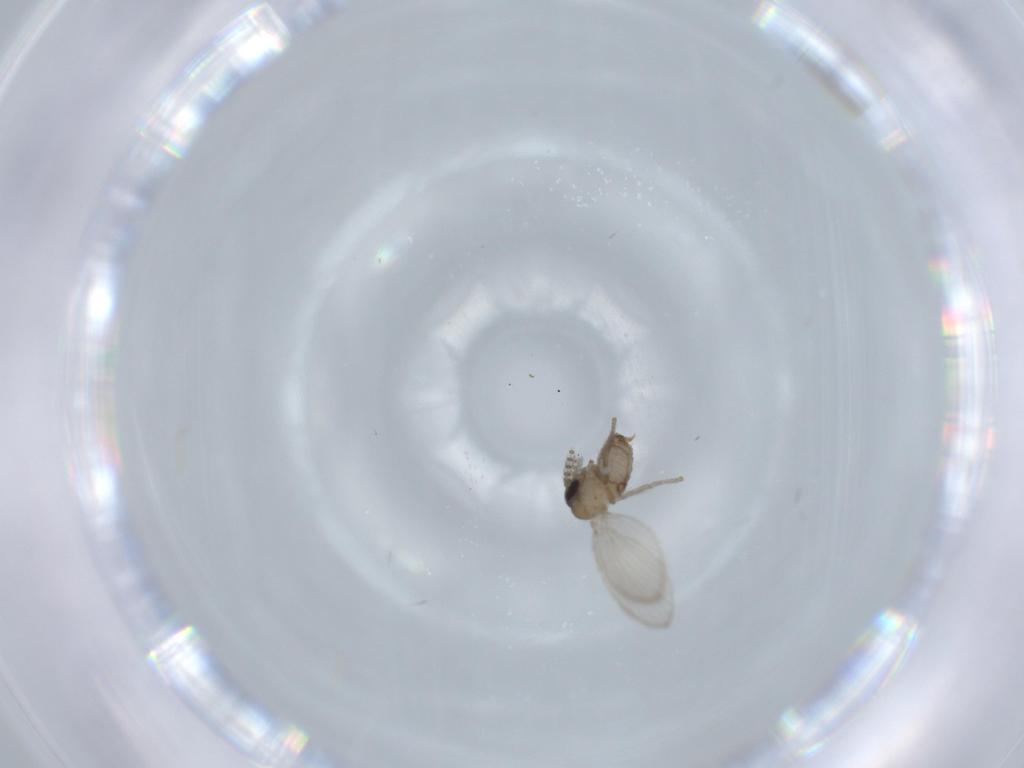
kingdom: Animalia
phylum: Arthropoda
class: Insecta
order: Diptera
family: Psychodidae
